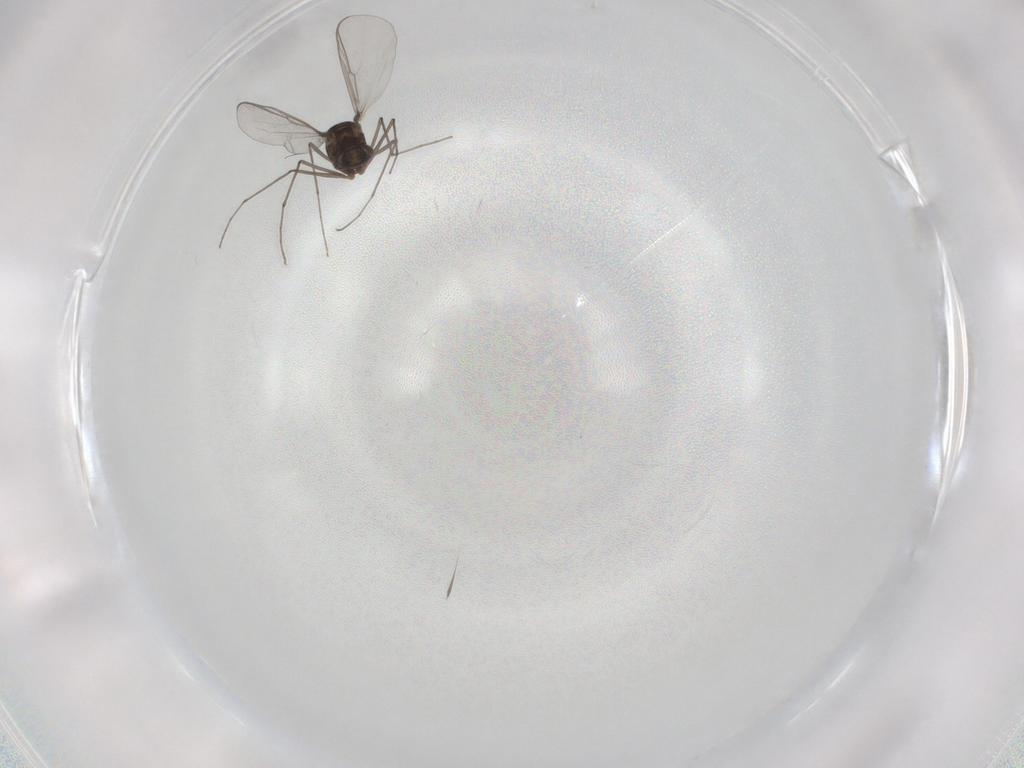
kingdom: Animalia
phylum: Arthropoda
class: Insecta
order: Diptera
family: Chironomidae
